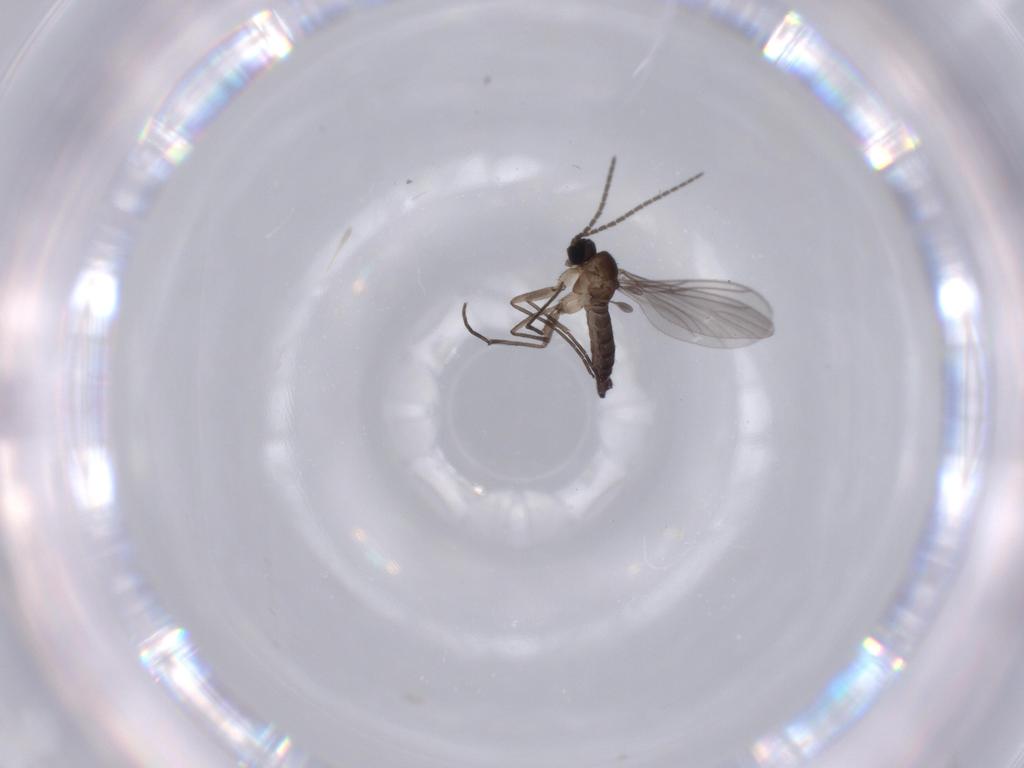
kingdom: Animalia
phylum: Arthropoda
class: Insecta
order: Diptera
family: Sciaridae
